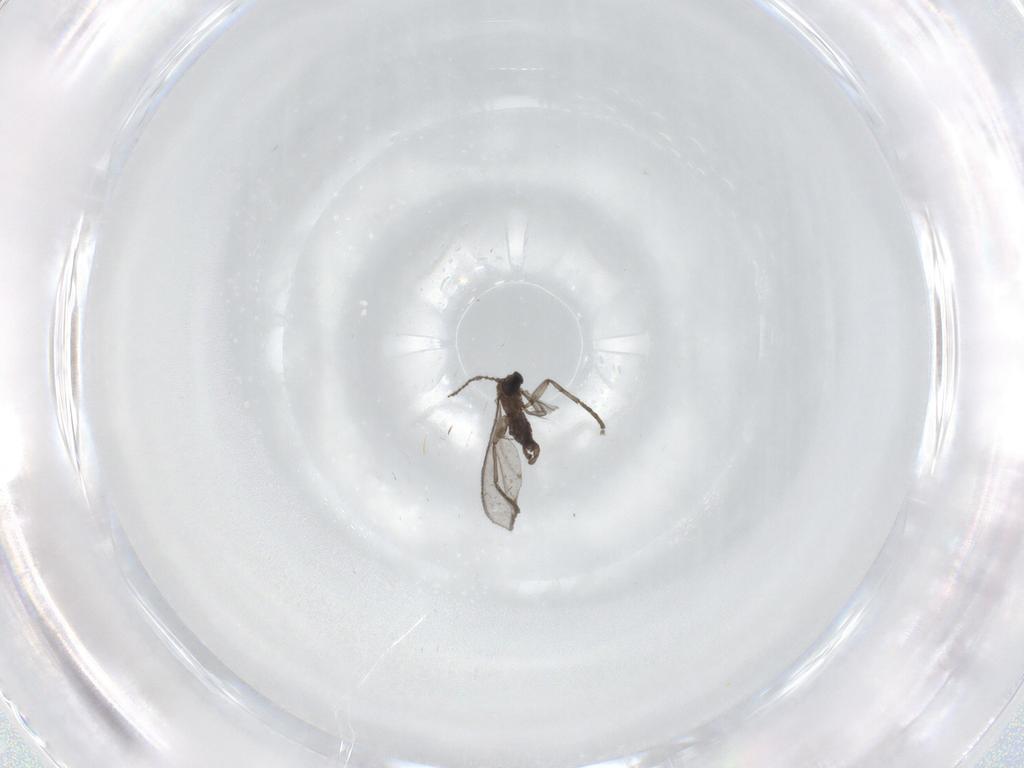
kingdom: Animalia
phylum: Arthropoda
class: Insecta
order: Diptera
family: Sciaridae
